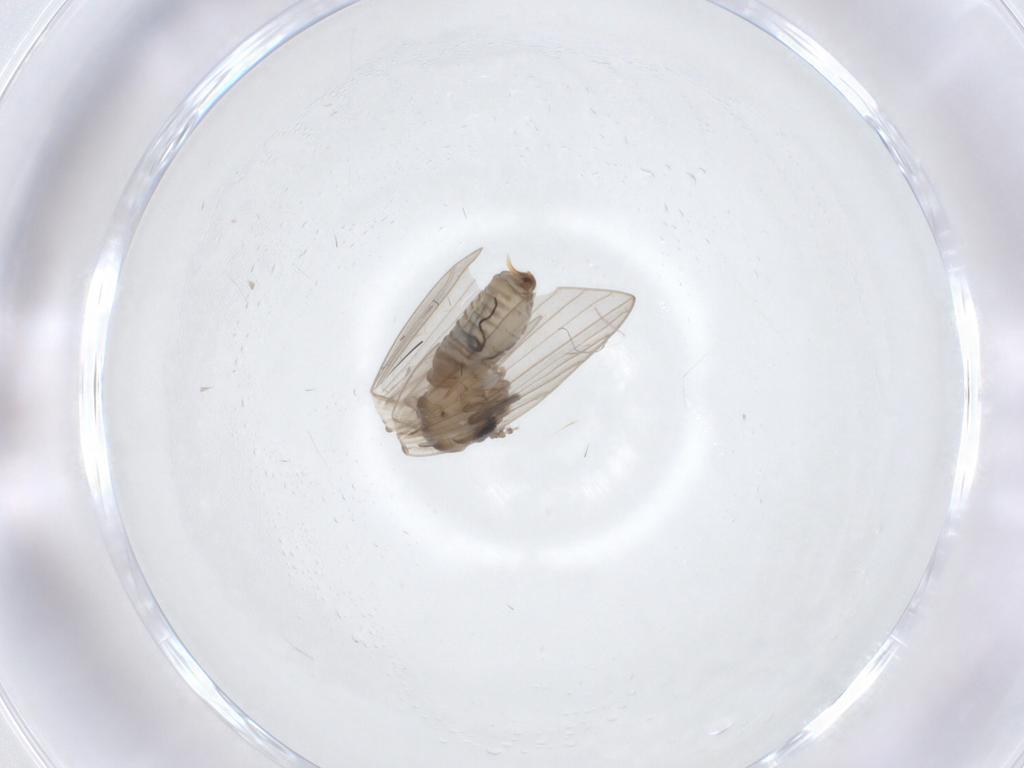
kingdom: Animalia
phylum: Arthropoda
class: Insecta
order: Diptera
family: Psychodidae
